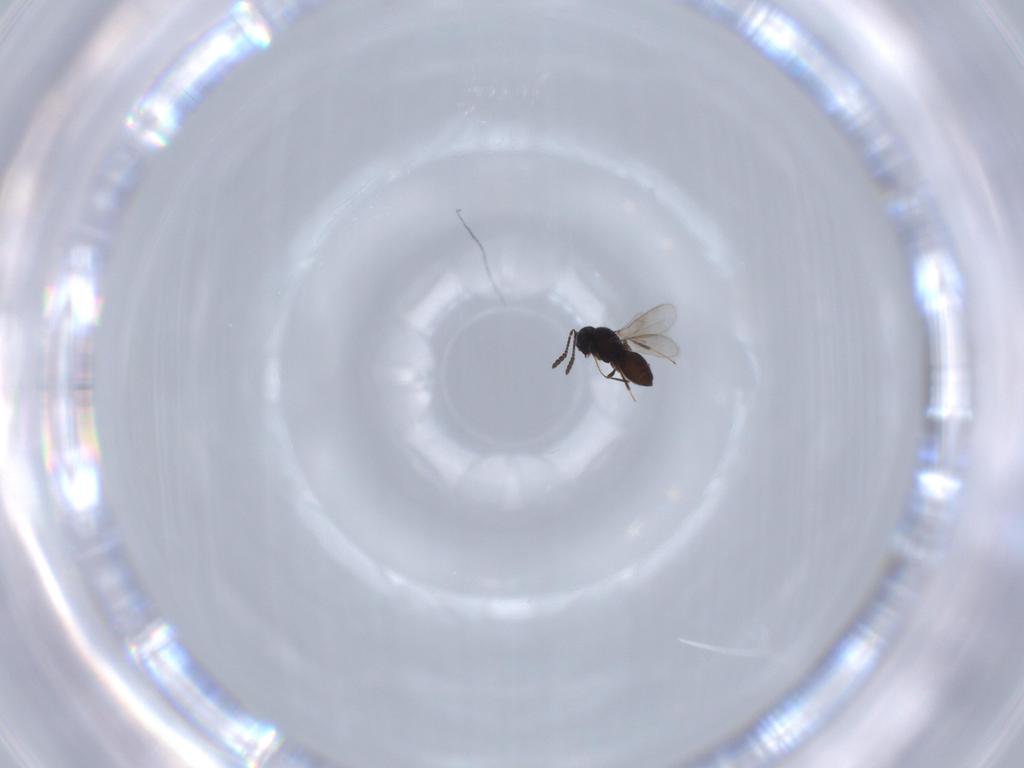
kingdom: Animalia
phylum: Arthropoda
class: Insecta
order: Hymenoptera
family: Scelionidae
